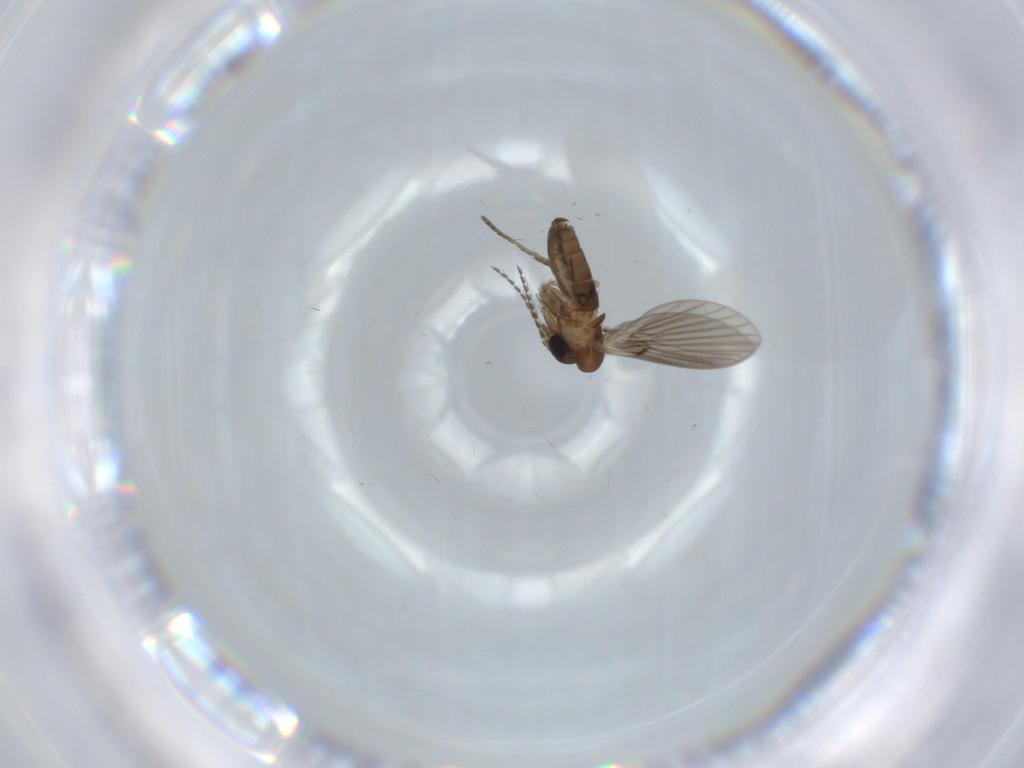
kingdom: Animalia
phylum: Arthropoda
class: Insecta
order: Diptera
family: Psychodidae
